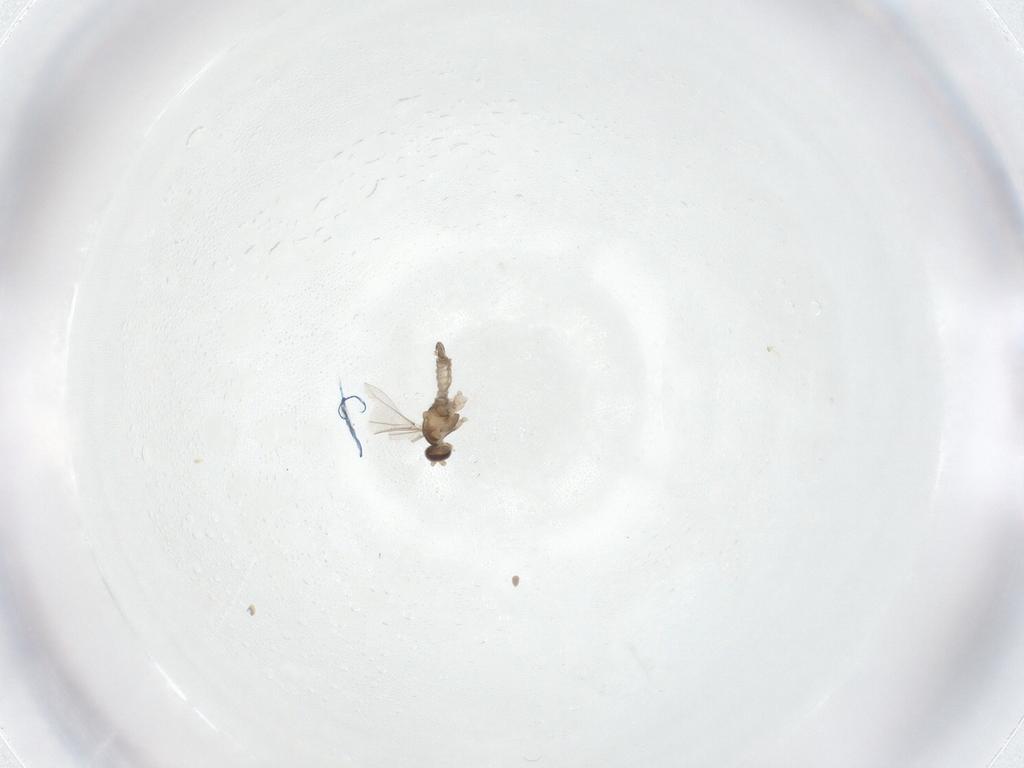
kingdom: Animalia
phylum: Arthropoda
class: Insecta
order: Diptera
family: Cecidomyiidae
